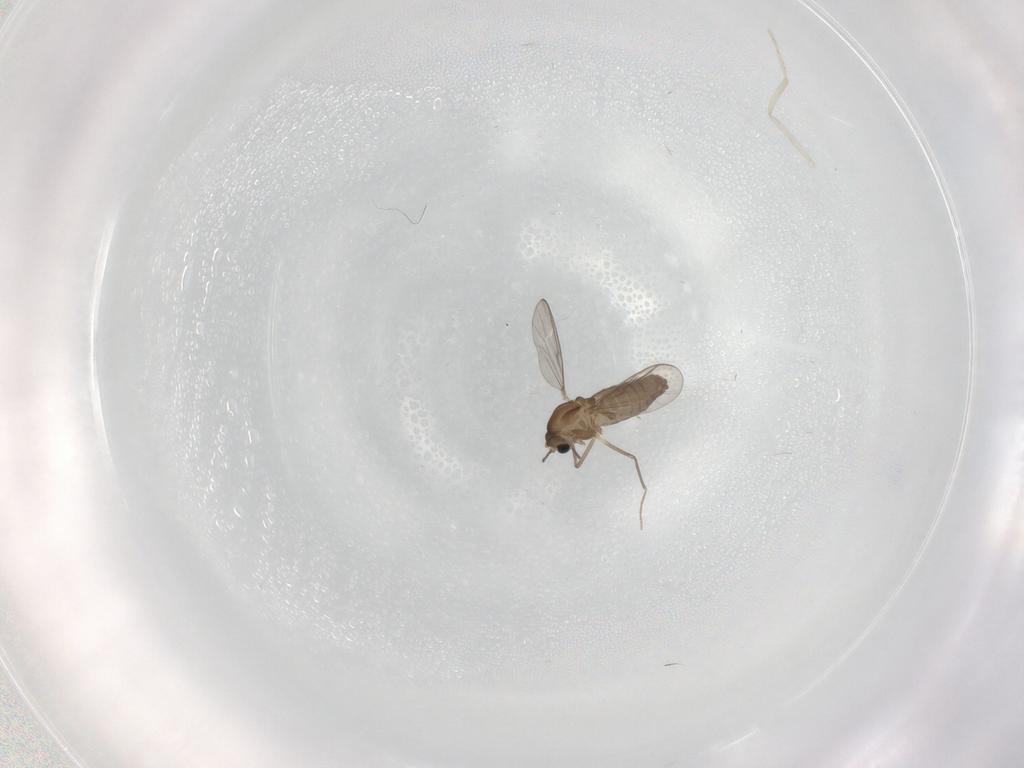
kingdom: Animalia
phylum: Arthropoda
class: Insecta
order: Diptera
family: Cecidomyiidae
